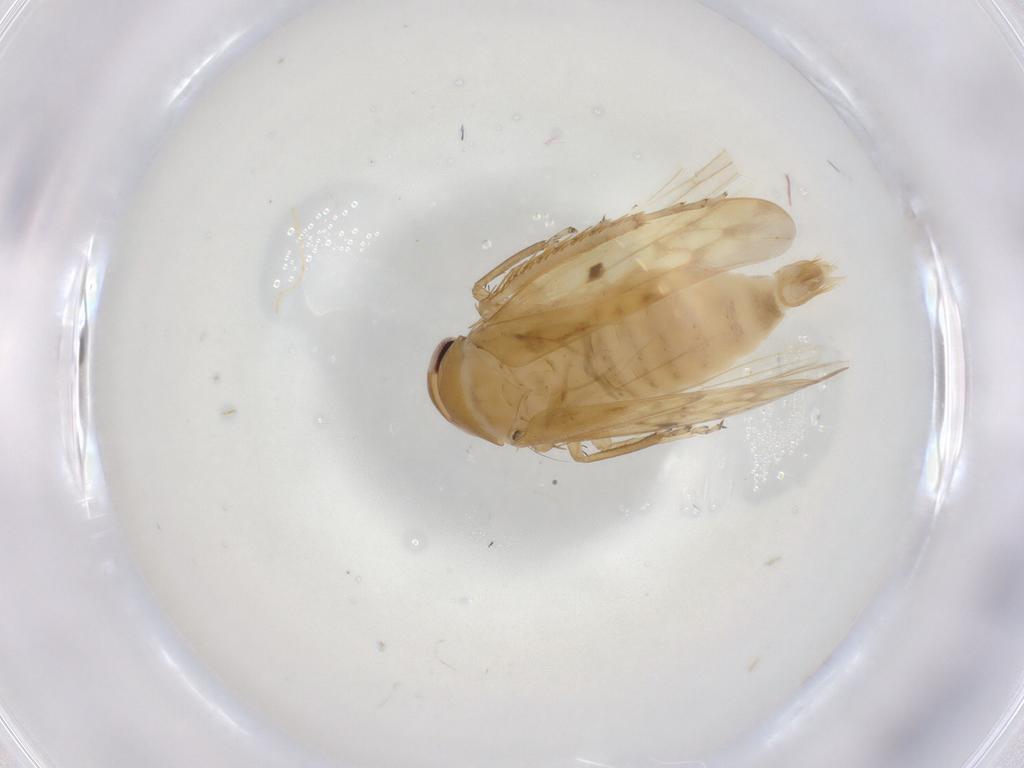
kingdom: Animalia
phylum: Arthropoda
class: Insecta
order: Hemiptera
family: Cicadellidae
